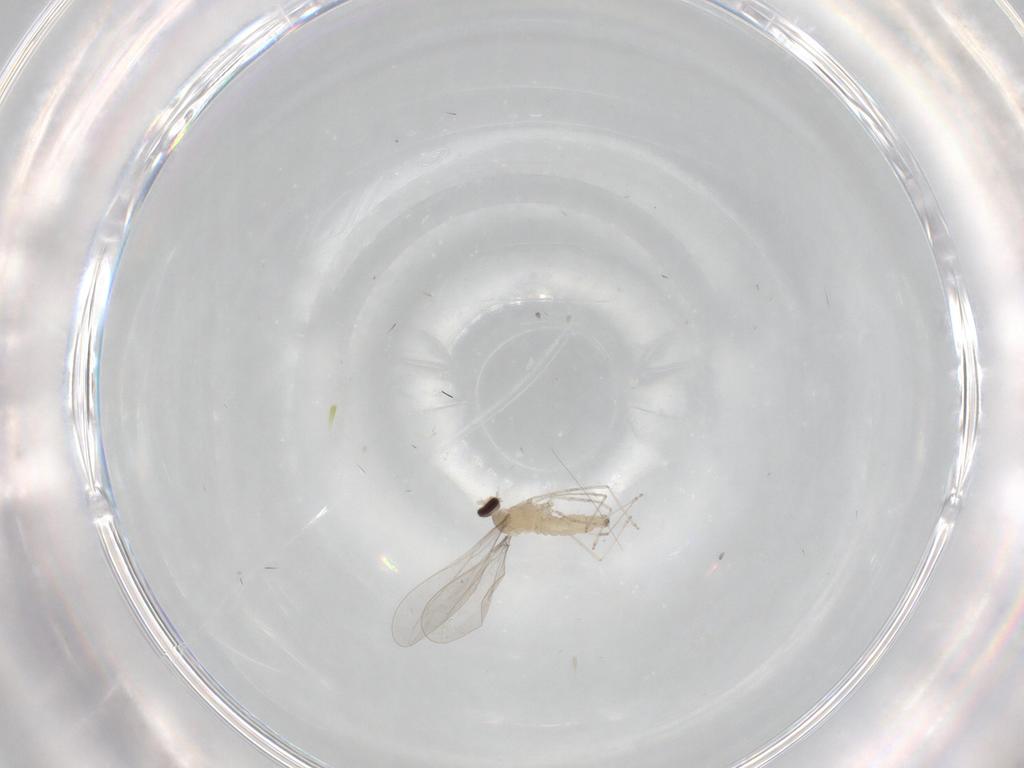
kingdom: Animalia
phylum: Arthropoda
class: Insecta
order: Diptera
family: Cecidomyiidae
